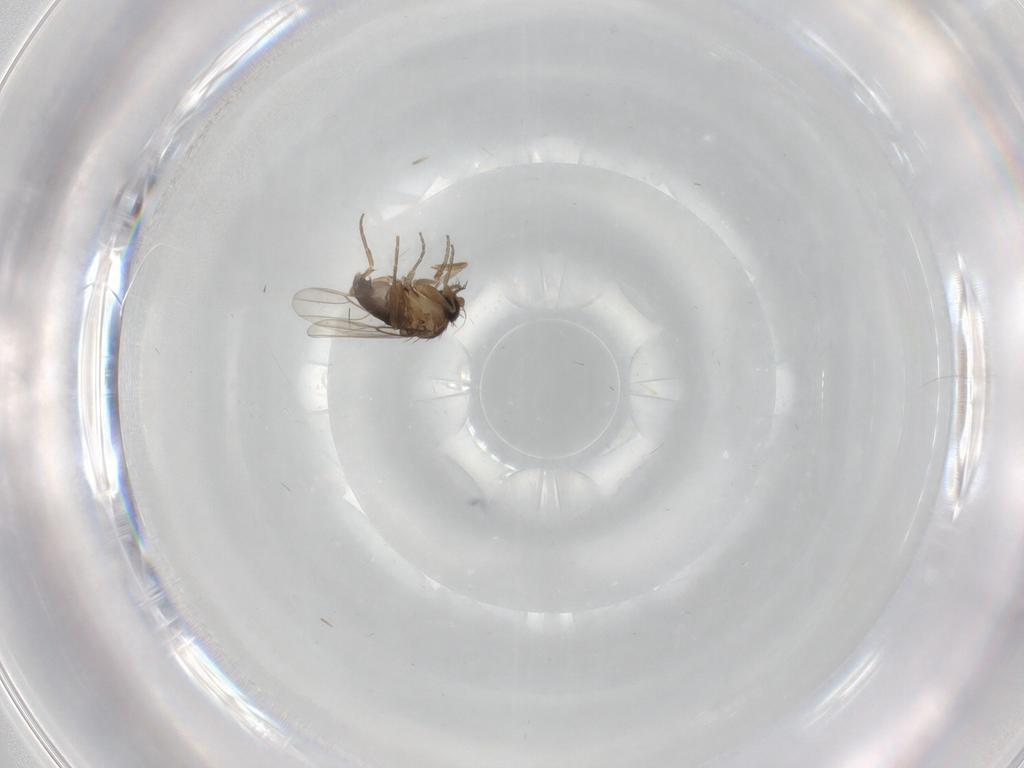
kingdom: Animalia
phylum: Arthropoda
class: Insecta
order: Diptera
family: Phoridae
